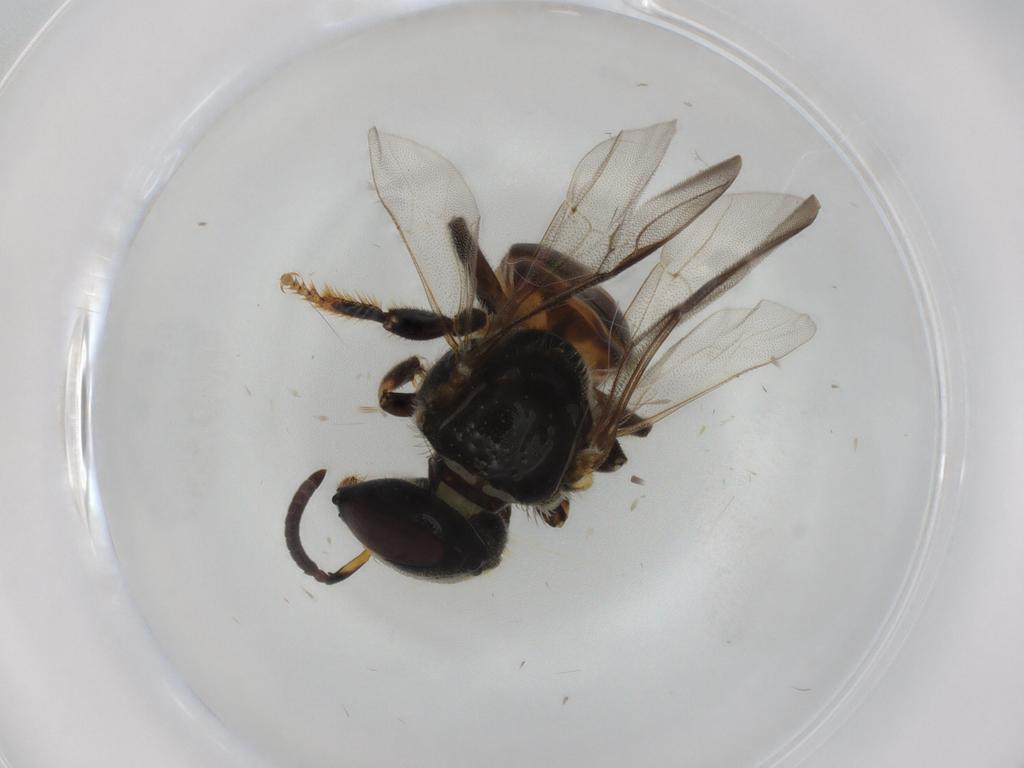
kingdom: Animalia
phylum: Arthropoda
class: Insecta
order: Hymenoptera
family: Apidae
